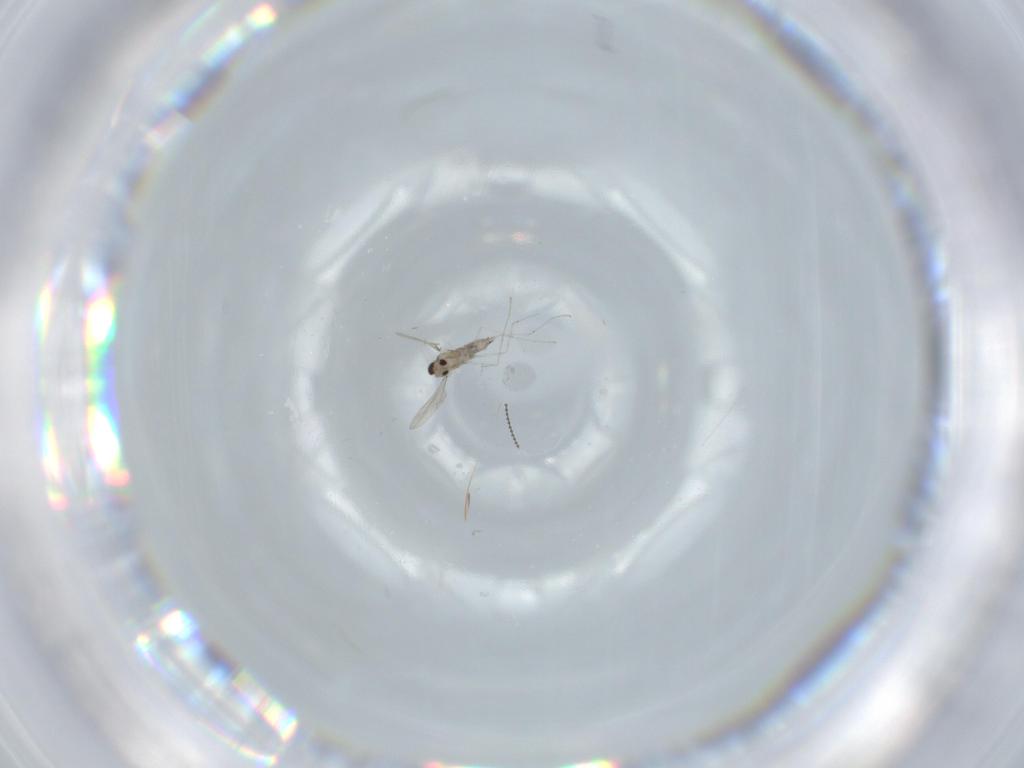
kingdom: Animalia
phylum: Arthropoda
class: Insecta
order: Diptera
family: Cecidomyiidae
